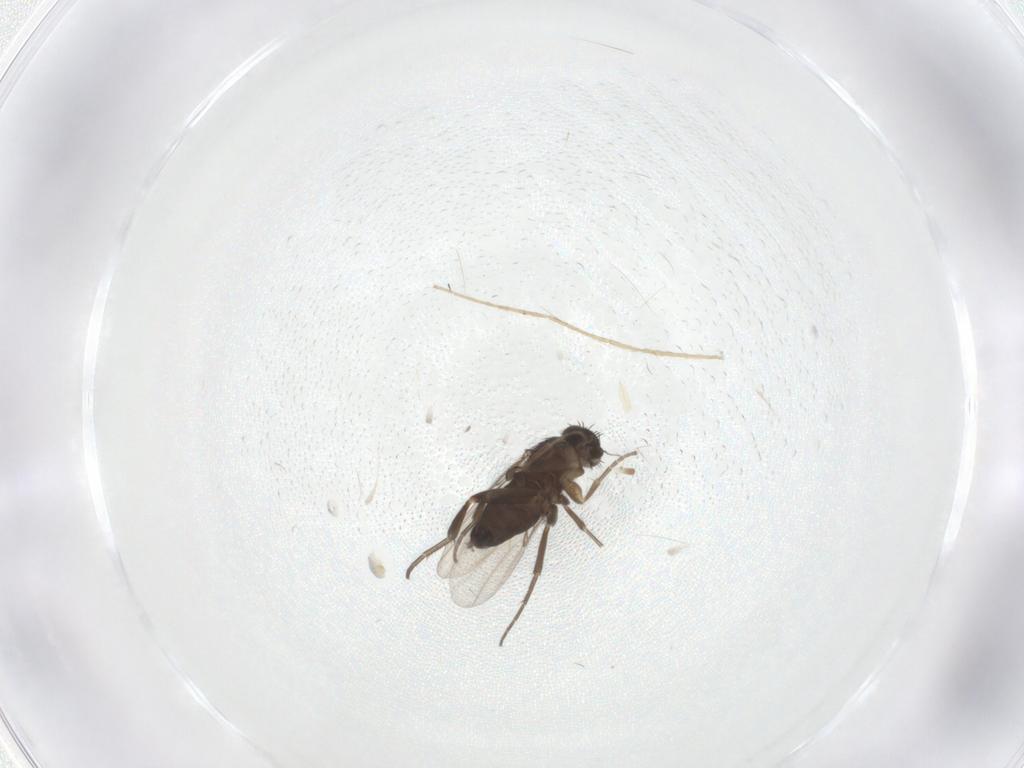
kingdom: Animalia
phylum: Arthropoda
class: Insecta
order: Diptera
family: Phoridae
